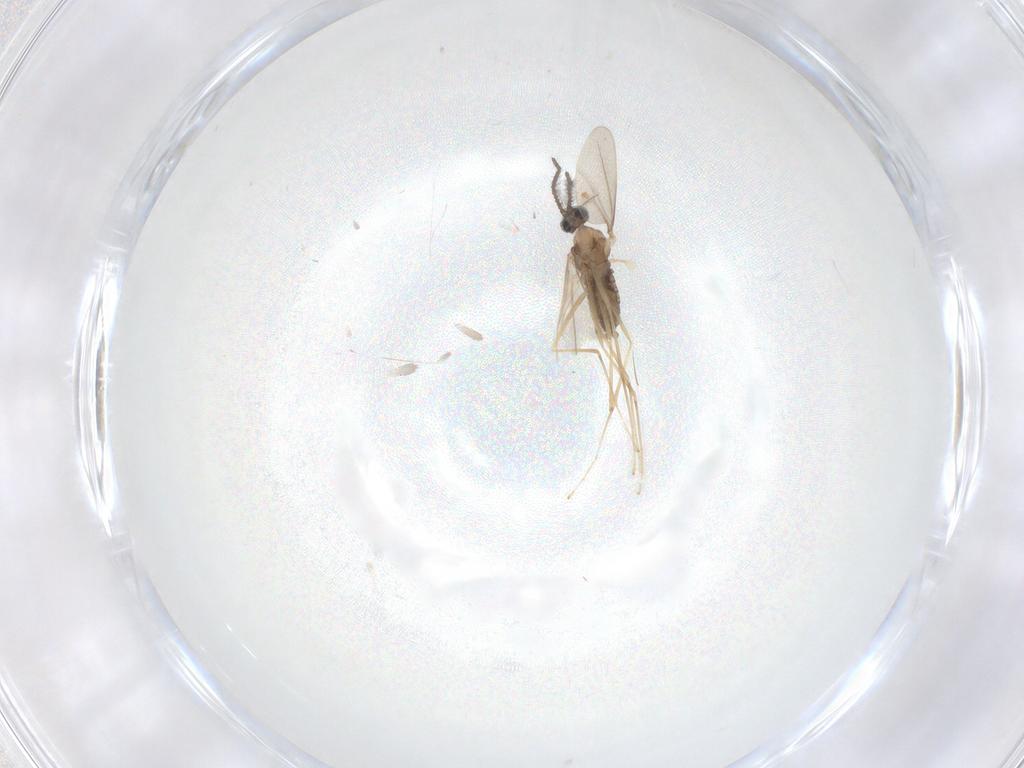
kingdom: Animalia
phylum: Arthropoda
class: Insecta
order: Diptera
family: Cecidomyiidae
